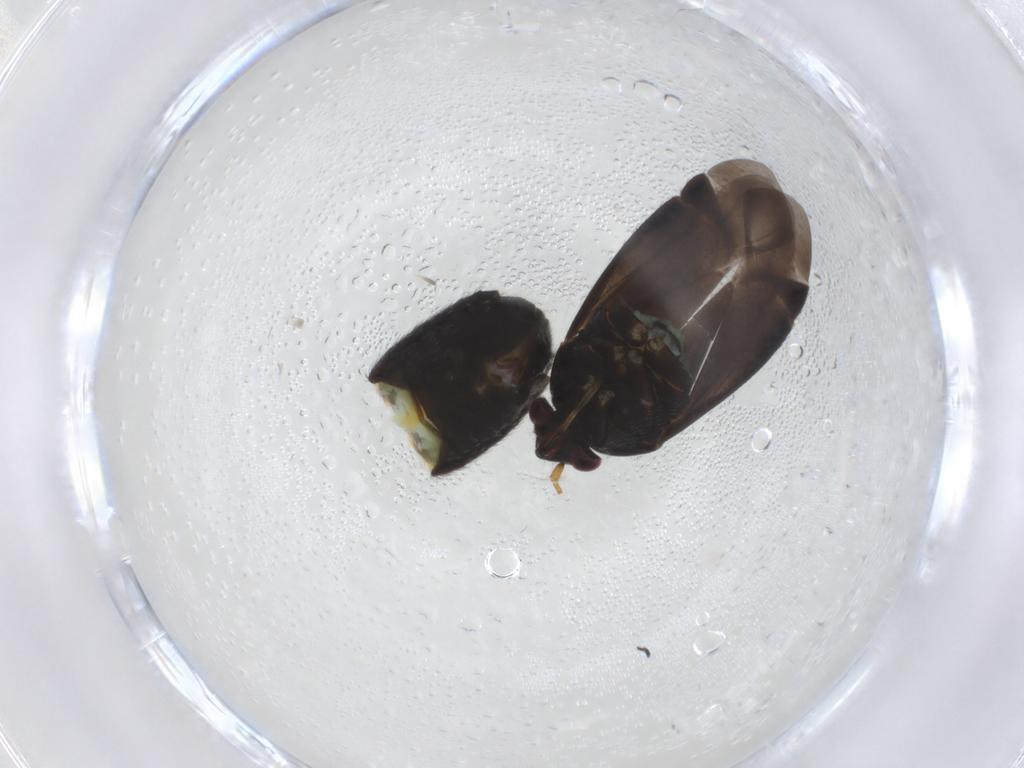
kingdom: Animalia
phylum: Arthropoda
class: Insecta
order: Hemiptera
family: Miridae
